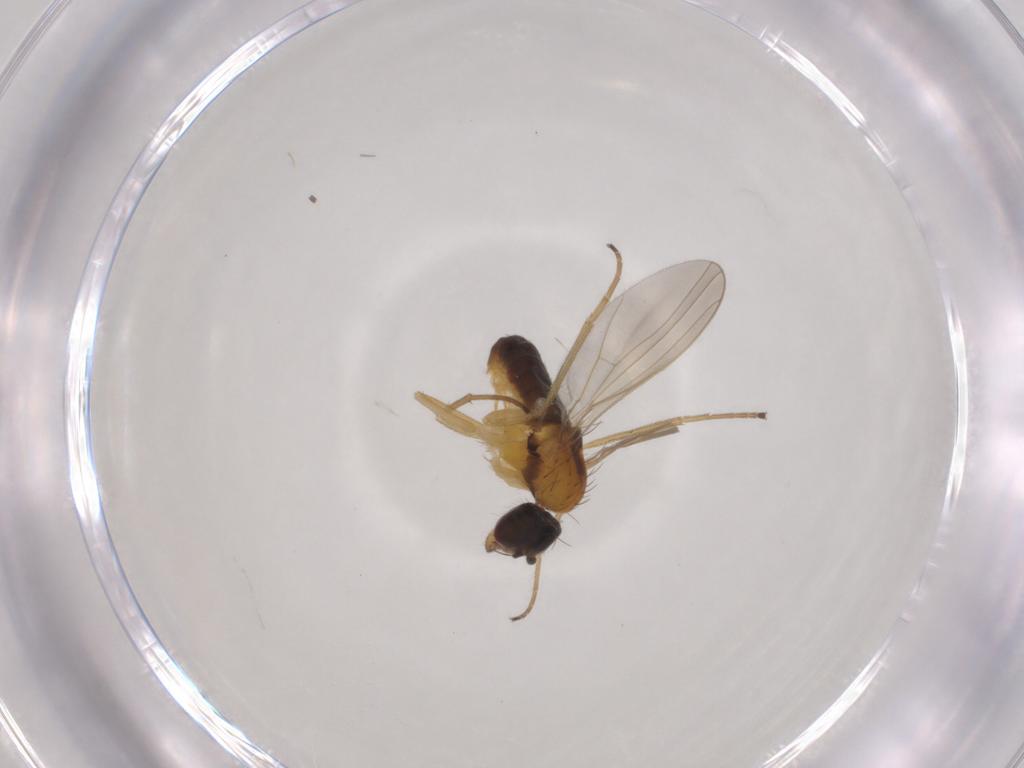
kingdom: Animalia
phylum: Arthropoda
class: Insecta
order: Diptera
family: Dolichopodidae
